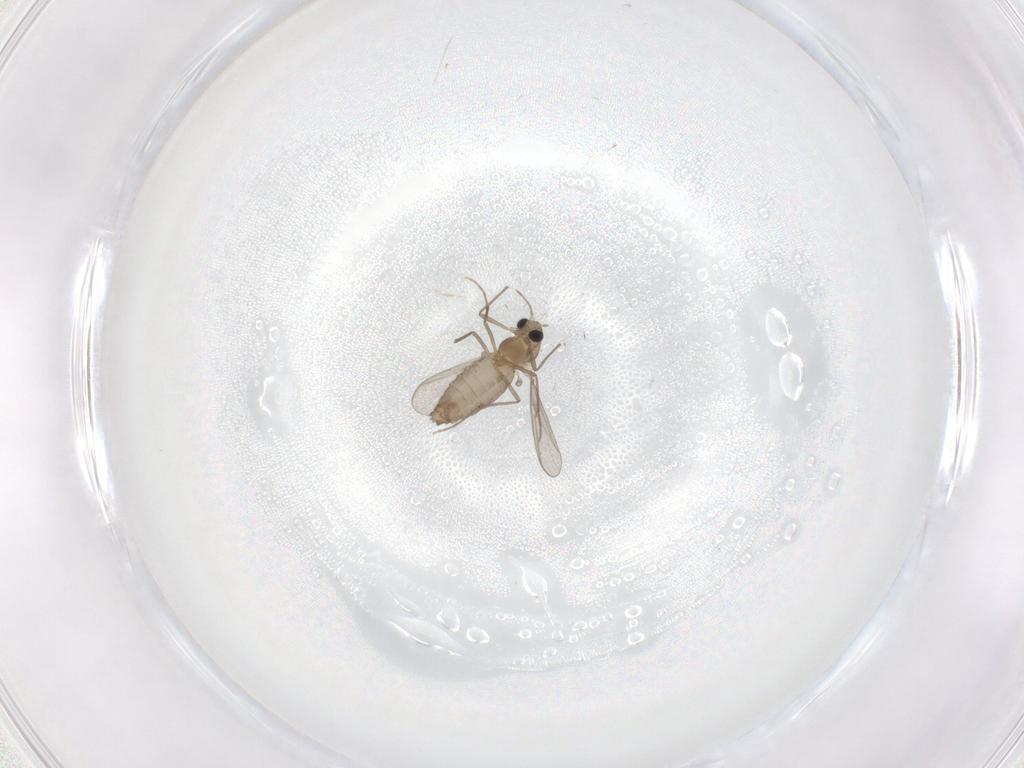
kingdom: Animalia
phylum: Arthropoda
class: Insecta
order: Diptera
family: Chironomidae
